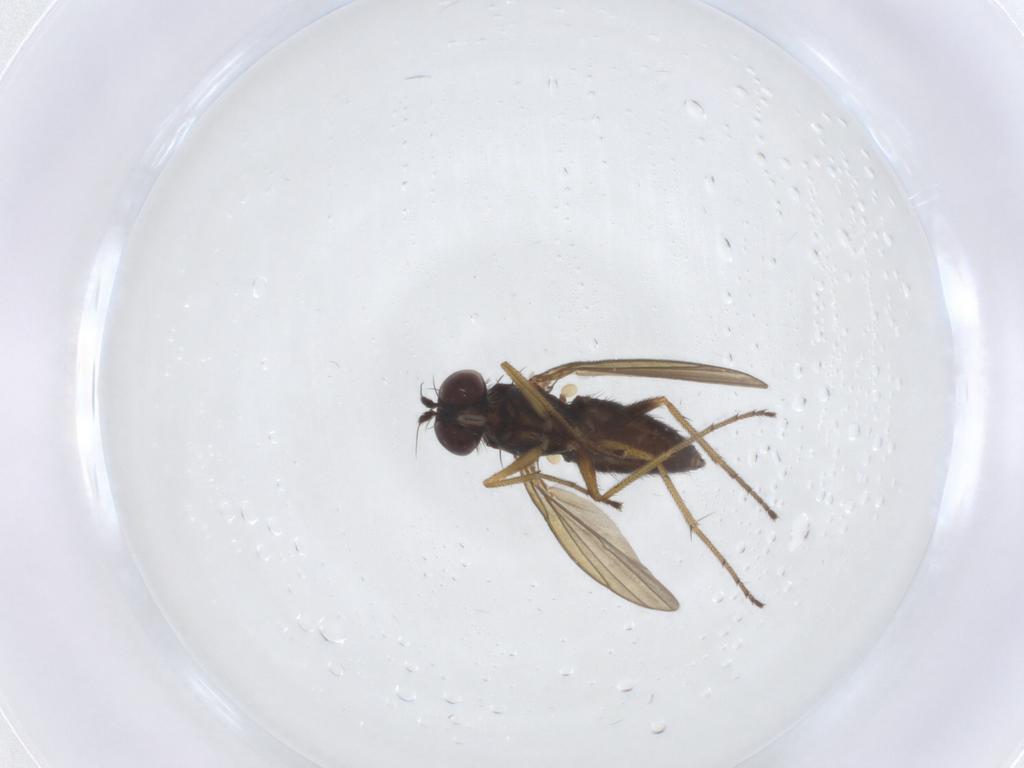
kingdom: Animalia
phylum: Arthropoda
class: Insecta
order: Diptera
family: Dolichopodidae
